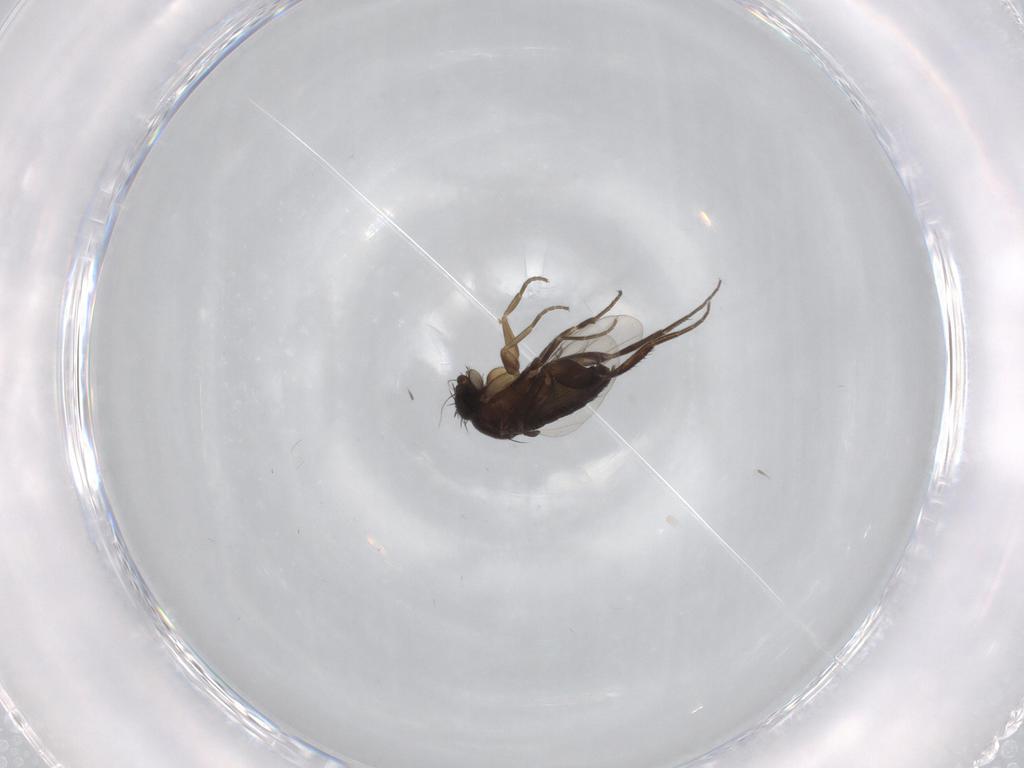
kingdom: Animalia
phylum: Arthropoda
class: Insecta
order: Diptera
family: Phoridae
